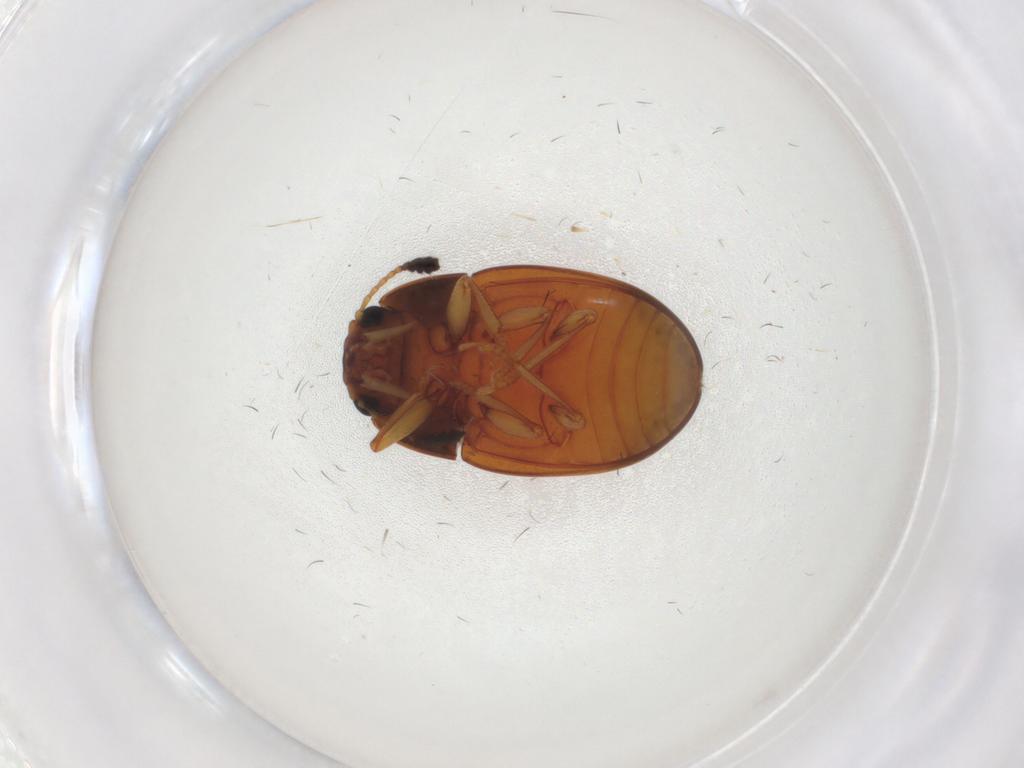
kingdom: Animalia
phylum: Arthropoda
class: Insecta
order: Coleoptera
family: Erotylidae
